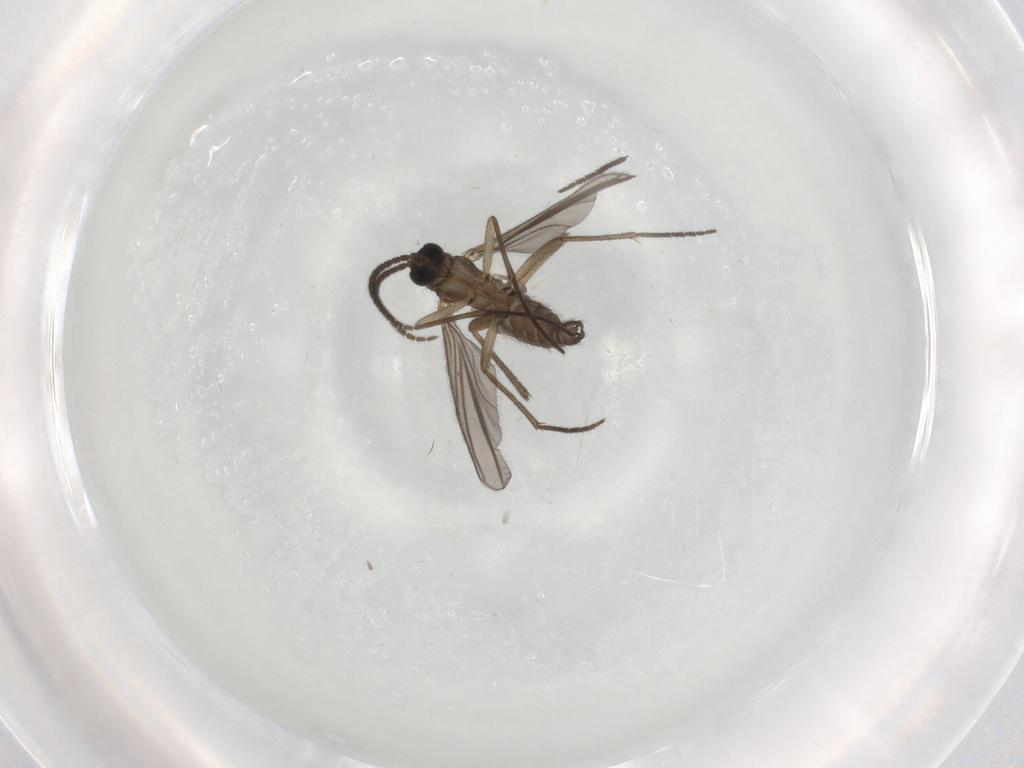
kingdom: Animalia
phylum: Arthropoda
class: Insecta
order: Diptera
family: Sciaridae
